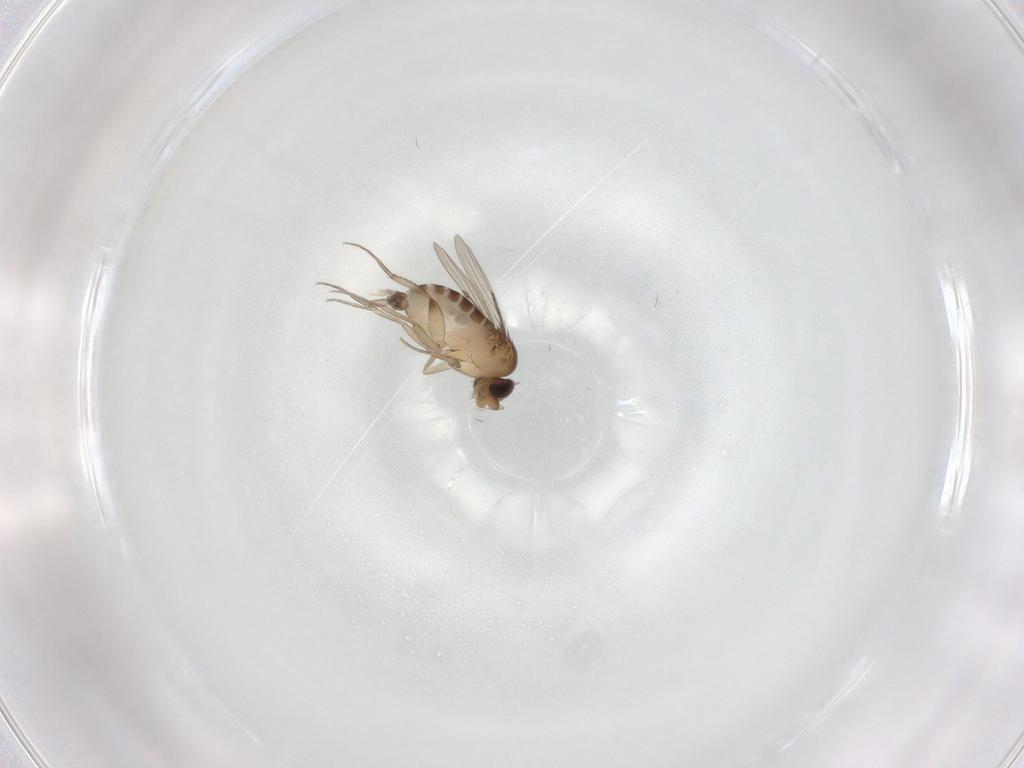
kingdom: Animalia
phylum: Arthropoda
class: Insecta
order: Diptera
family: Phoridae
